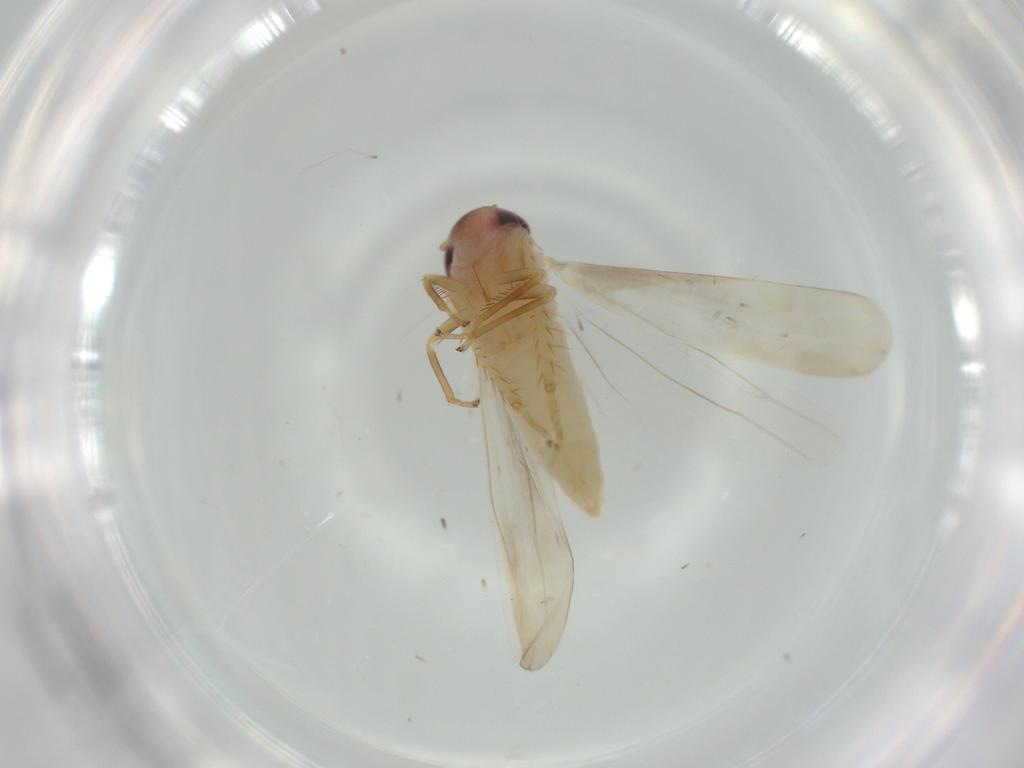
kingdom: Animalia
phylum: Arthropoda
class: Insecta
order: Hemiptera
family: Cicadellidae
